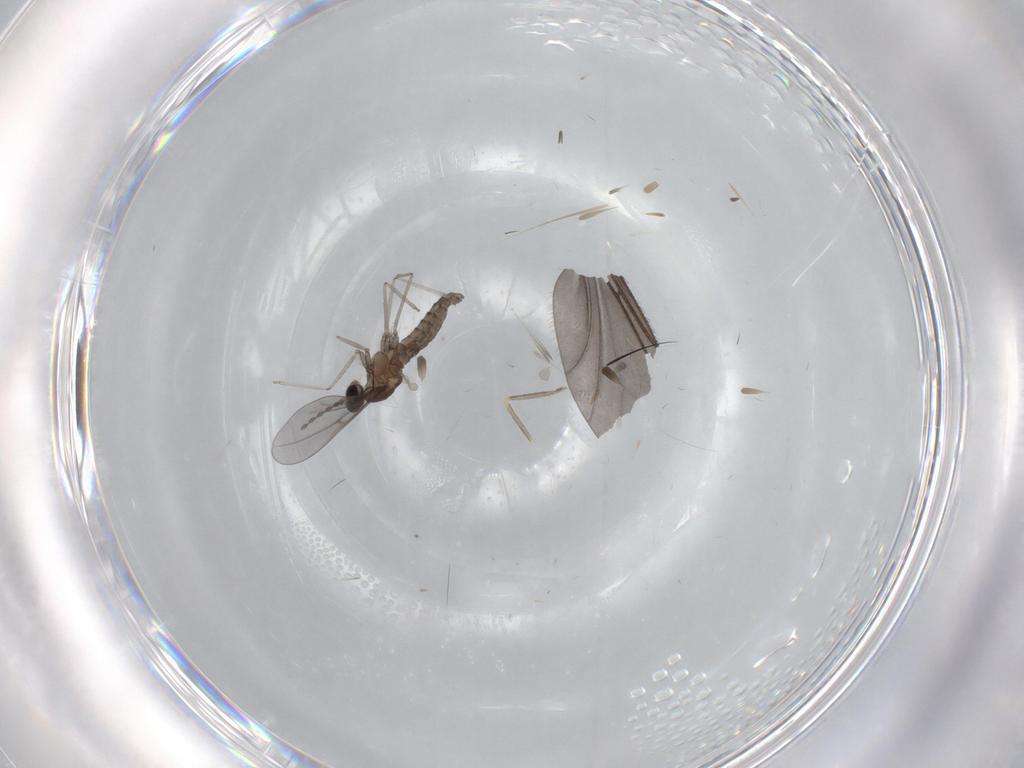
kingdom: Animalia
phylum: Arthropoda
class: Insecta
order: Diptera
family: Cecidomyiidae
